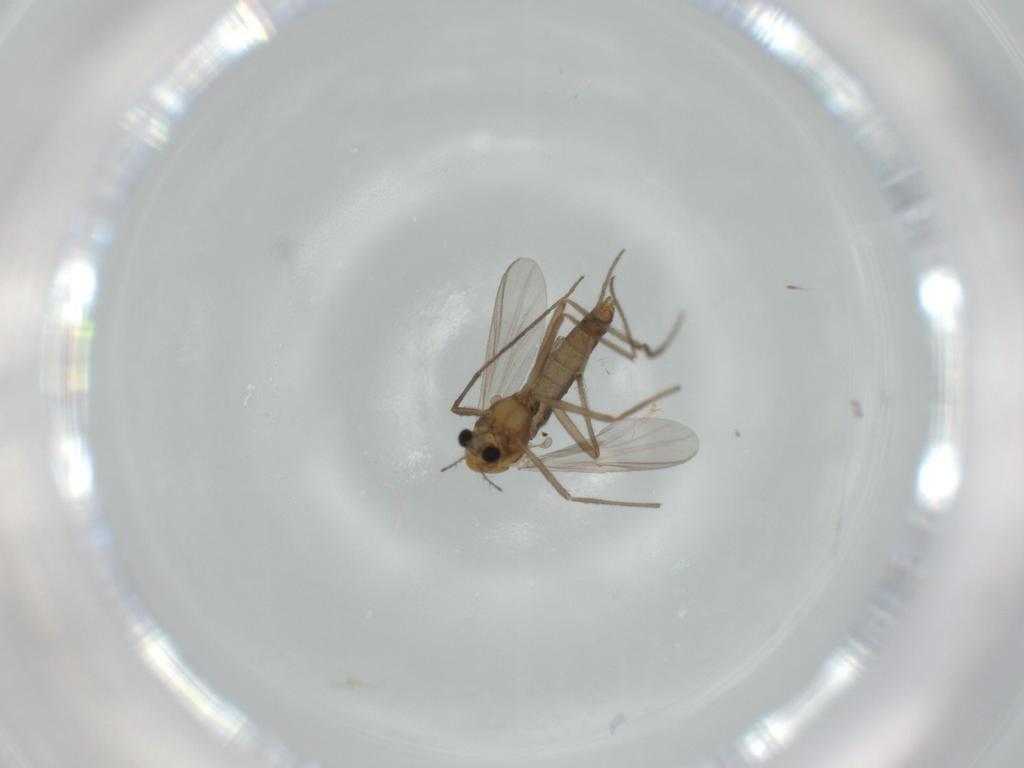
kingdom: Animalia
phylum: Arthropoda
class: Insecta
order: Diptera
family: Chironomidae
